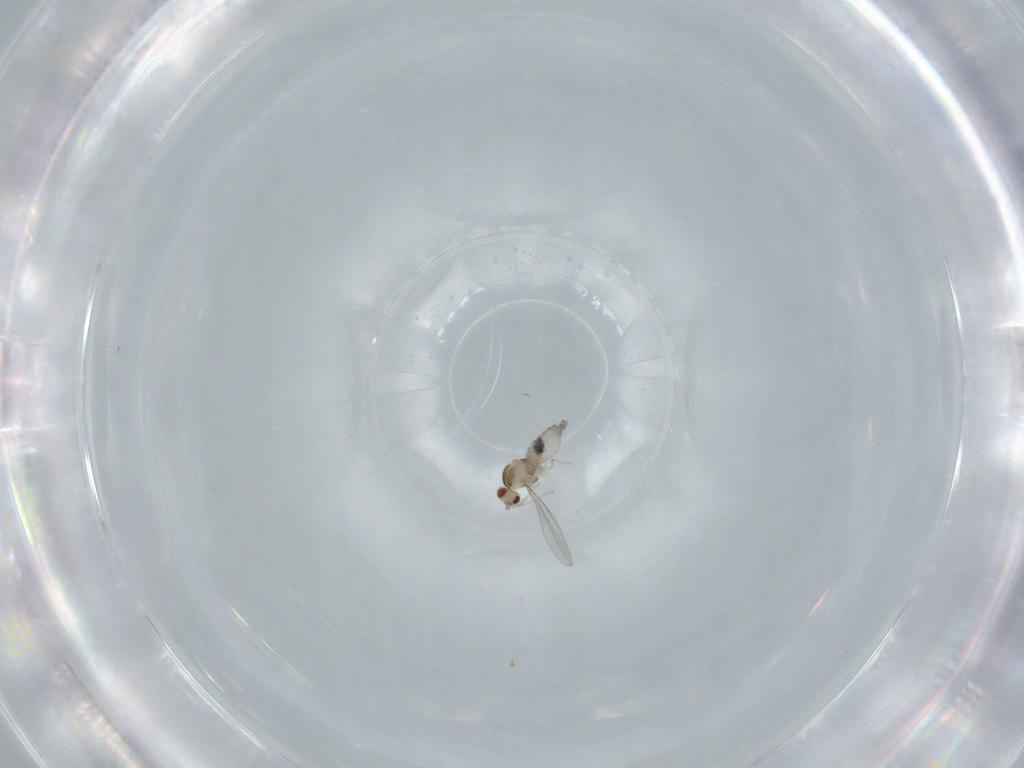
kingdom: Animalia
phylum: Arthropoda
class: Insecta
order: Diptera
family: Cecidomyiidae
